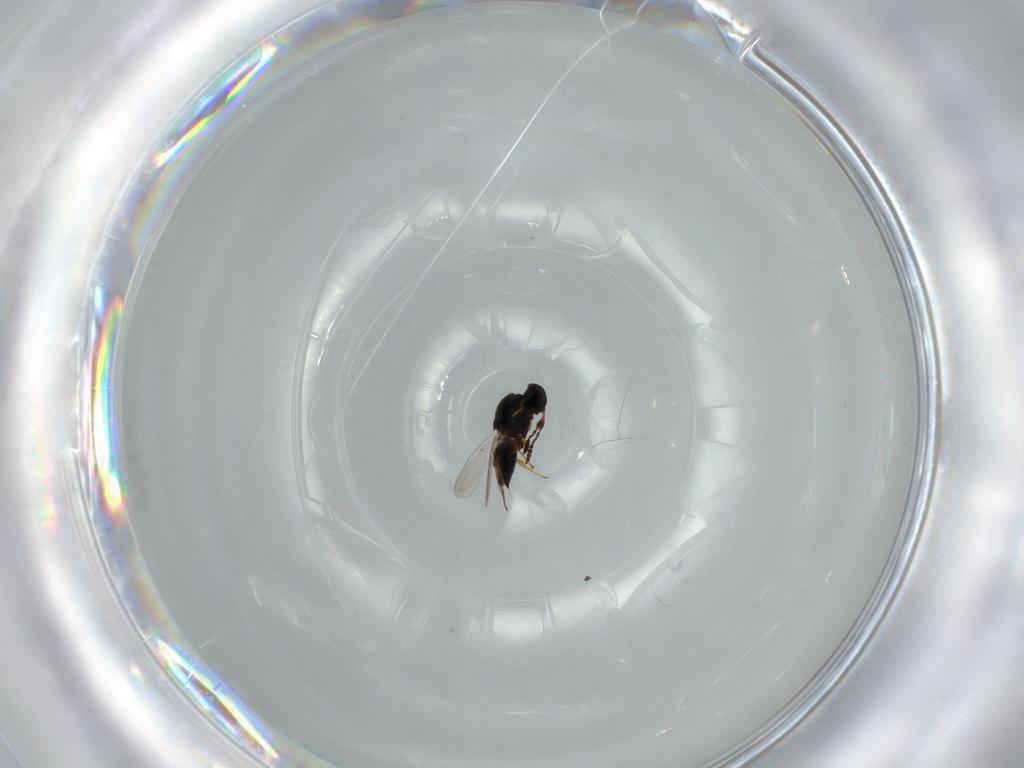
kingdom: Animalia
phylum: Arthropoda
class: Insecta
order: Hymenoptera
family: Platygastridae
